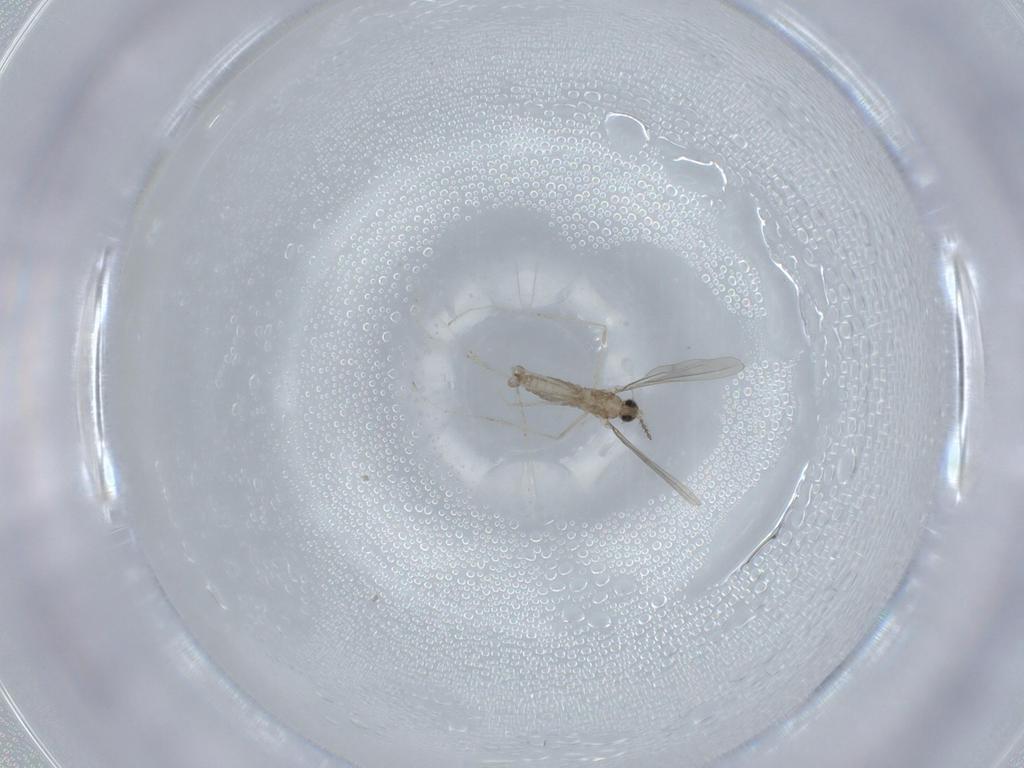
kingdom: Animalia
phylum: Arthropoda
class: Insecta
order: Diptera
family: Cecidomyiidae
